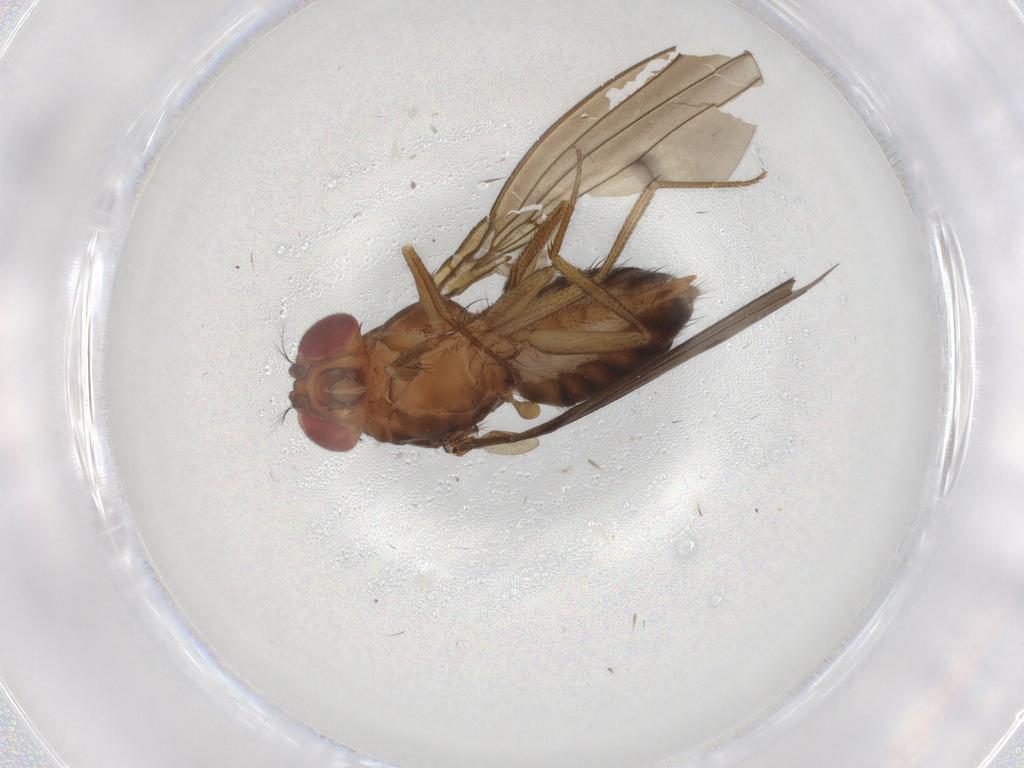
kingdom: Animalia
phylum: Arthropoda
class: Insecta
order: Diptera
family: Drosophilidae
